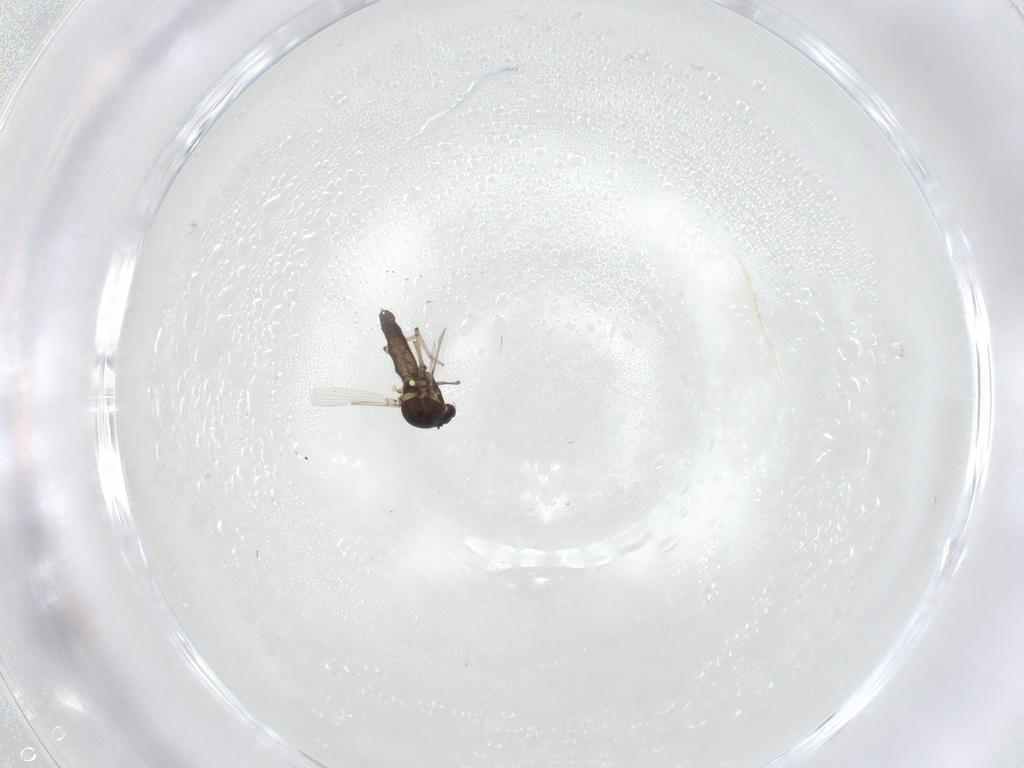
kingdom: Animalia
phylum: Arthropoda
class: Insecta
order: Diptera
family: Ceratopogonidae
